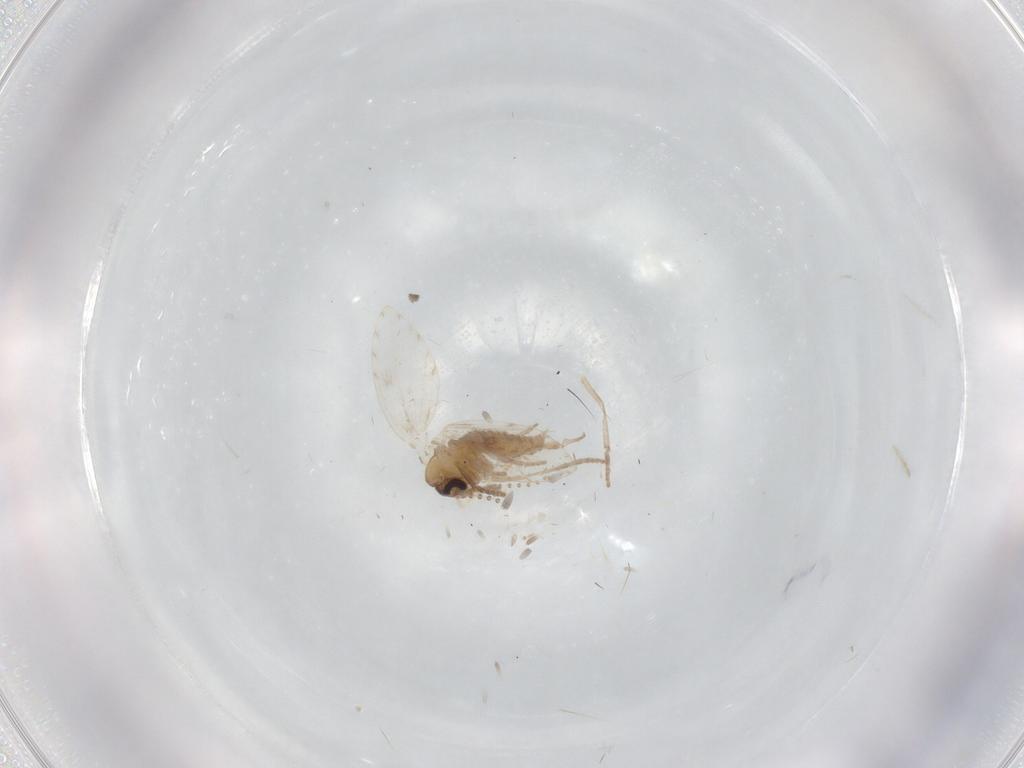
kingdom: Animalia
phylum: Arthropoda
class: Insecta
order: Diptera
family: Psychodidae
